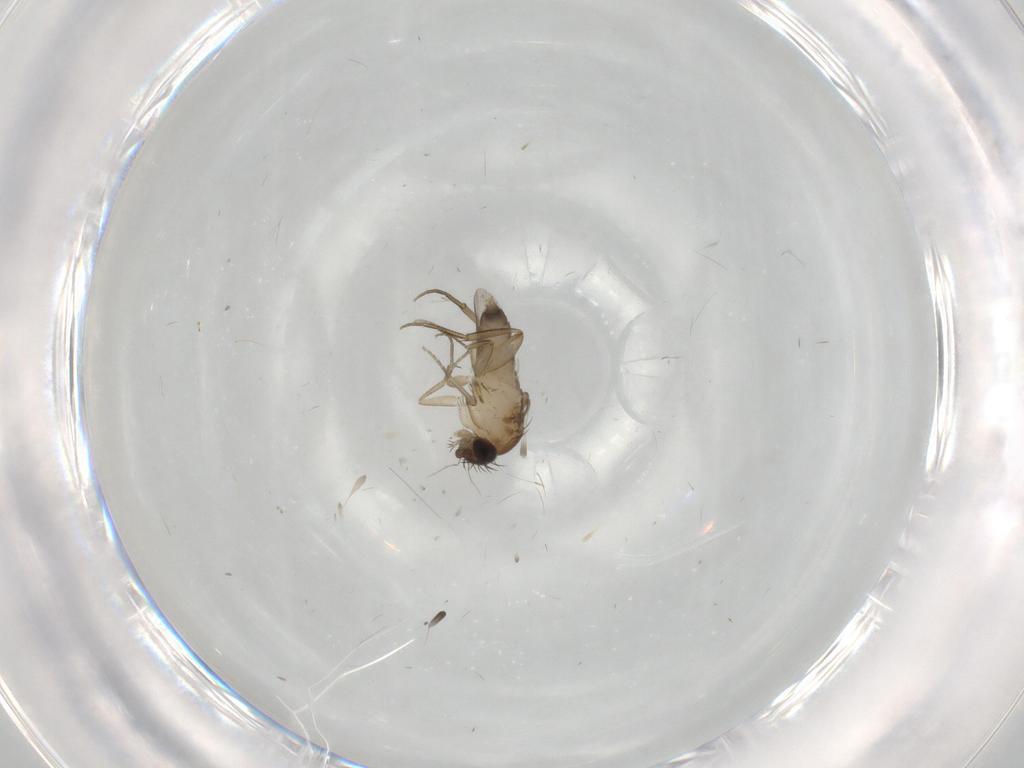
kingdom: Animalia
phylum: Arthropoda
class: Insecta
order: Diptera
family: Phoridae
